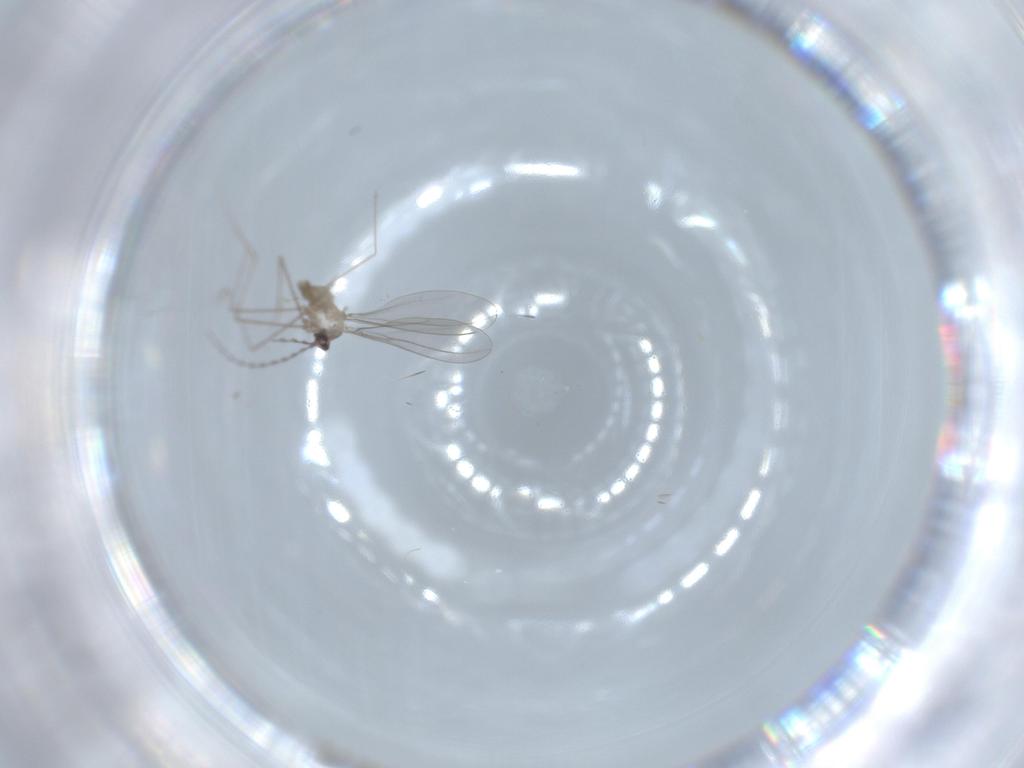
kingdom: Animalia
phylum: Arthropoda
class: Insecta
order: Diptera
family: Cecidomyiidae
